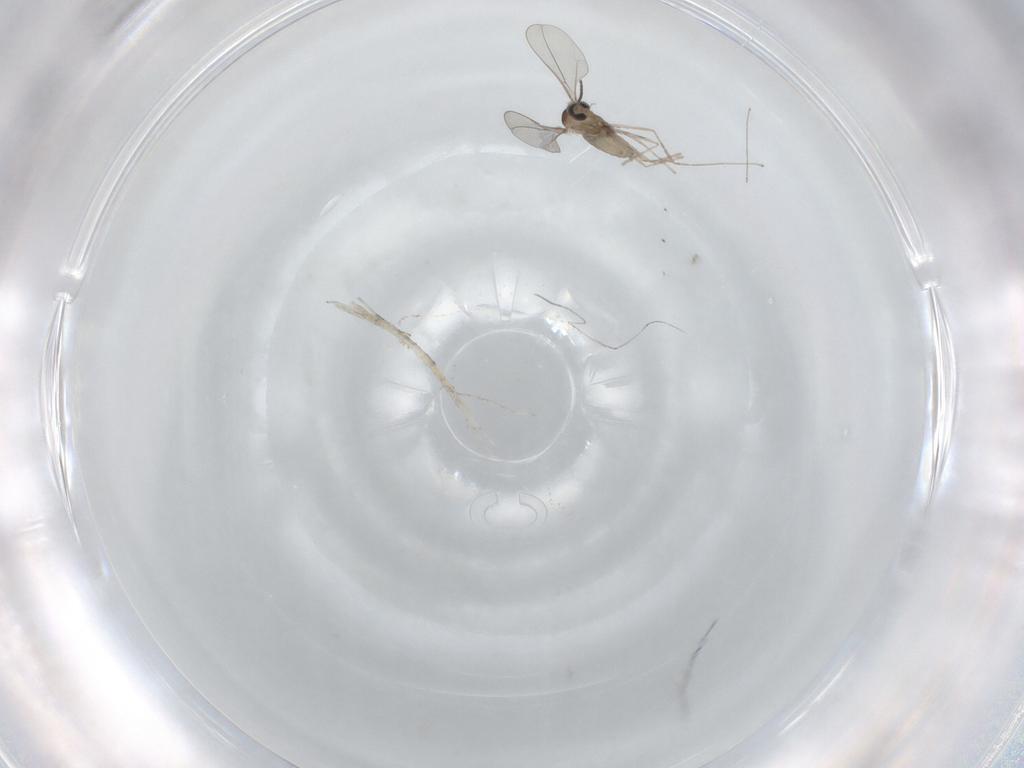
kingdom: Animalia
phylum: Arthropoda
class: Insecta
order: Diptera
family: Cecidomyiidae
